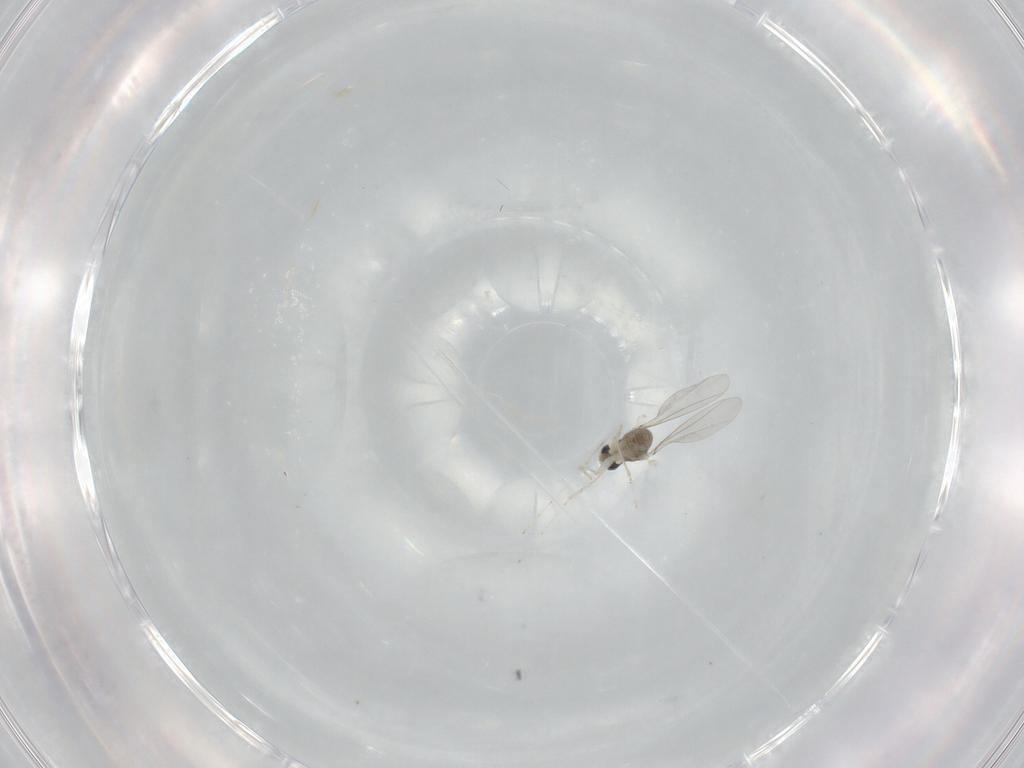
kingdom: Animalia
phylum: Arthropoda
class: Insecta
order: Diptera
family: Cecidomyiidae
